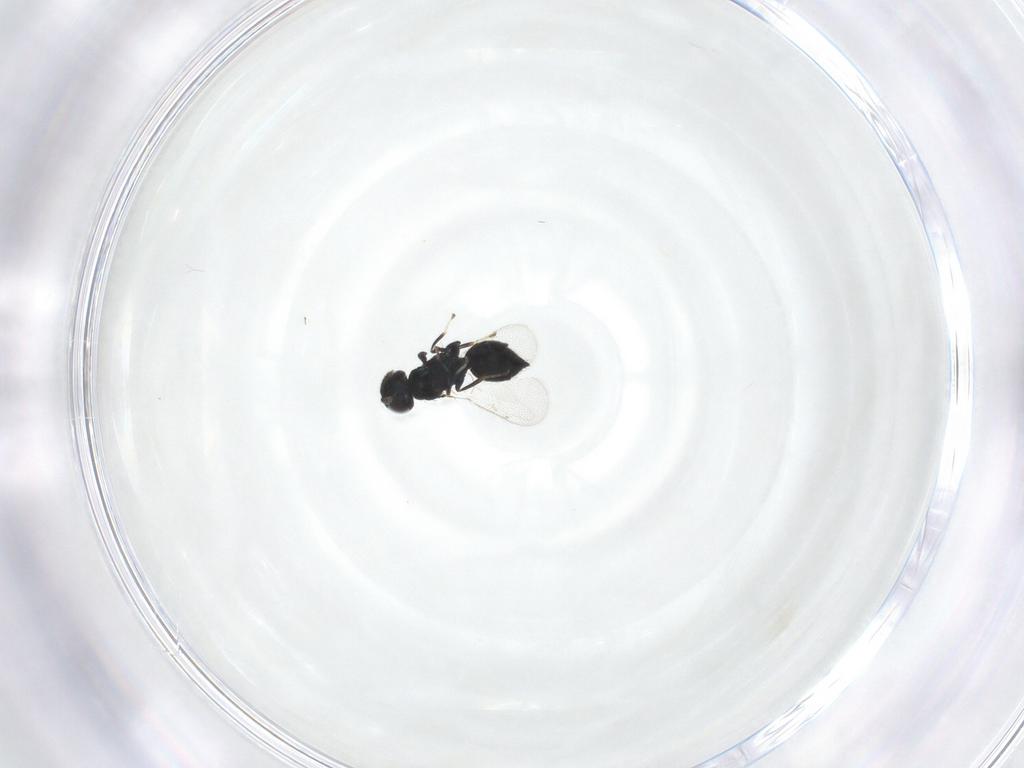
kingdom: Animalia
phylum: Arthropoda
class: Insecta
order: Hymenoptera
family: Eulophidae
